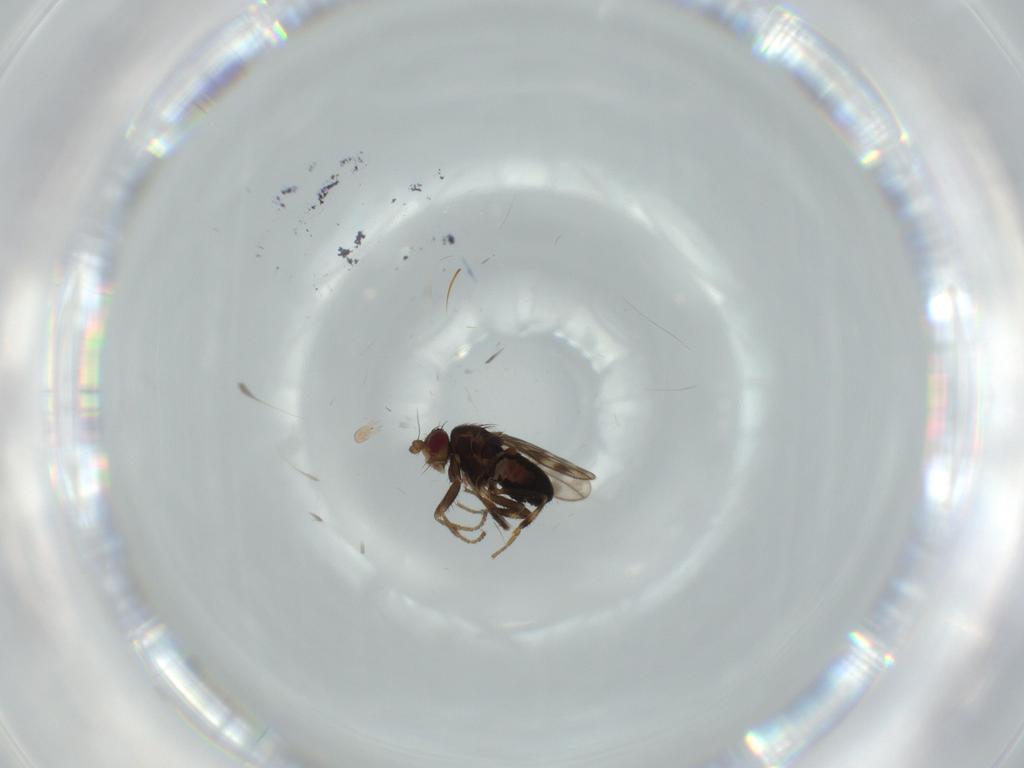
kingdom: Animalia
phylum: Arthropoda
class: Insecta
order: Diptera
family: Sphaeroceridae
